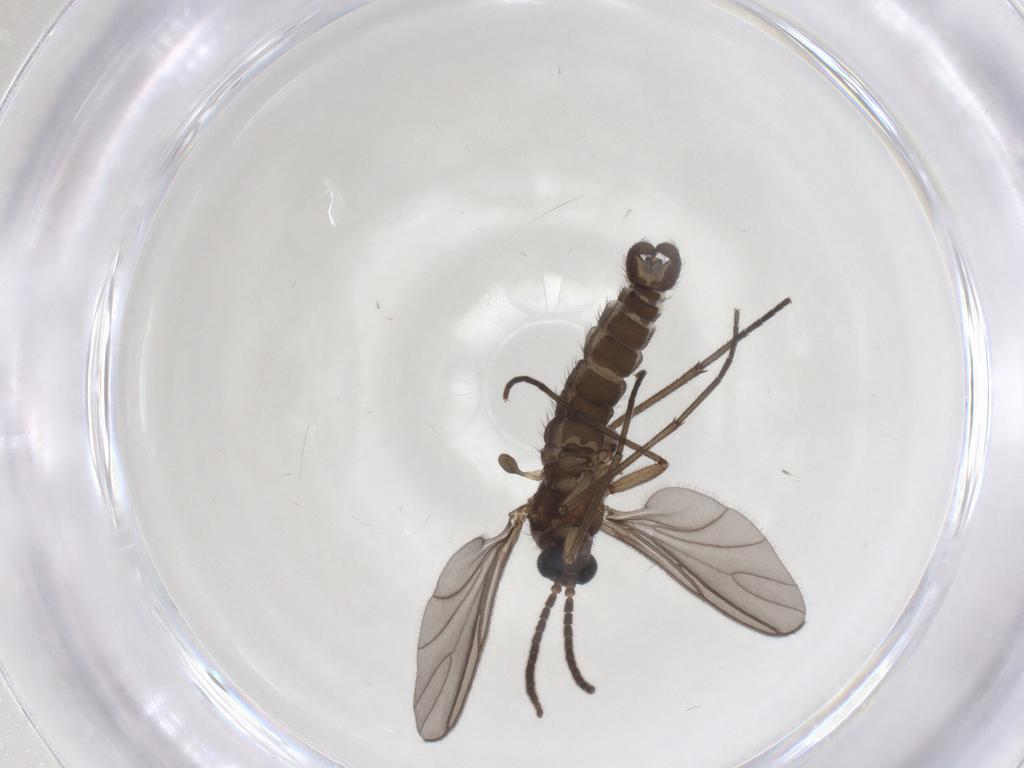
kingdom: Animalia
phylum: Arthropoda
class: Insecta
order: Diptera
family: Sciaridae
